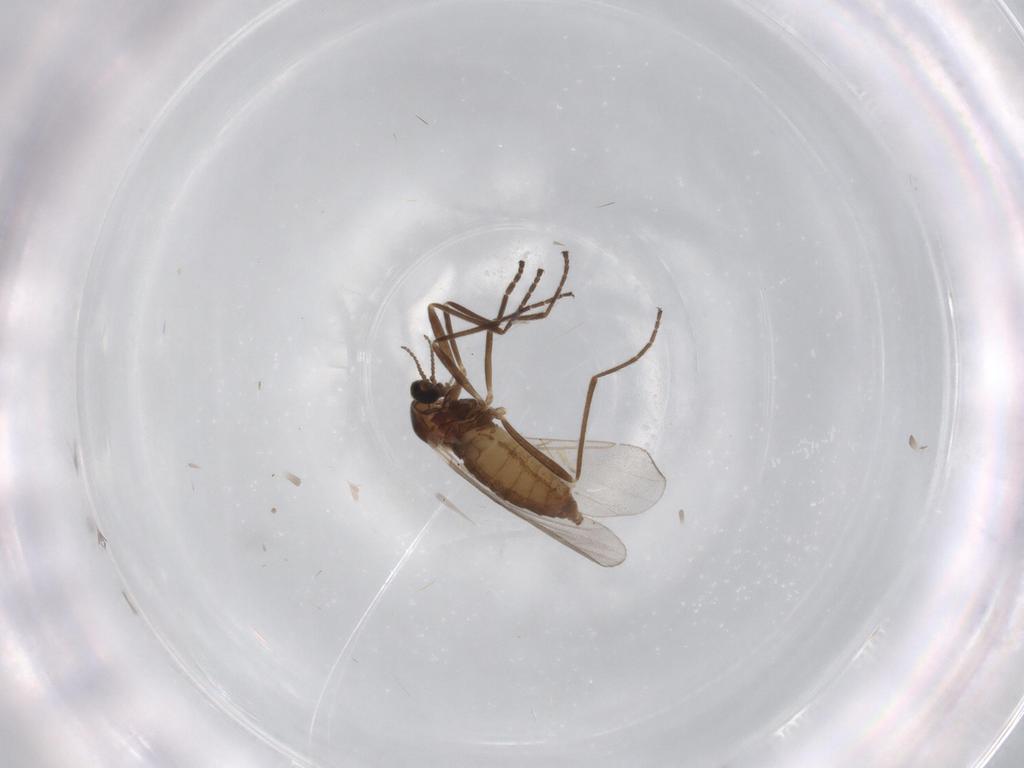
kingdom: Animalia
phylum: Arthropoda
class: Insecta
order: Diptera
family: Cecidomyiidae
